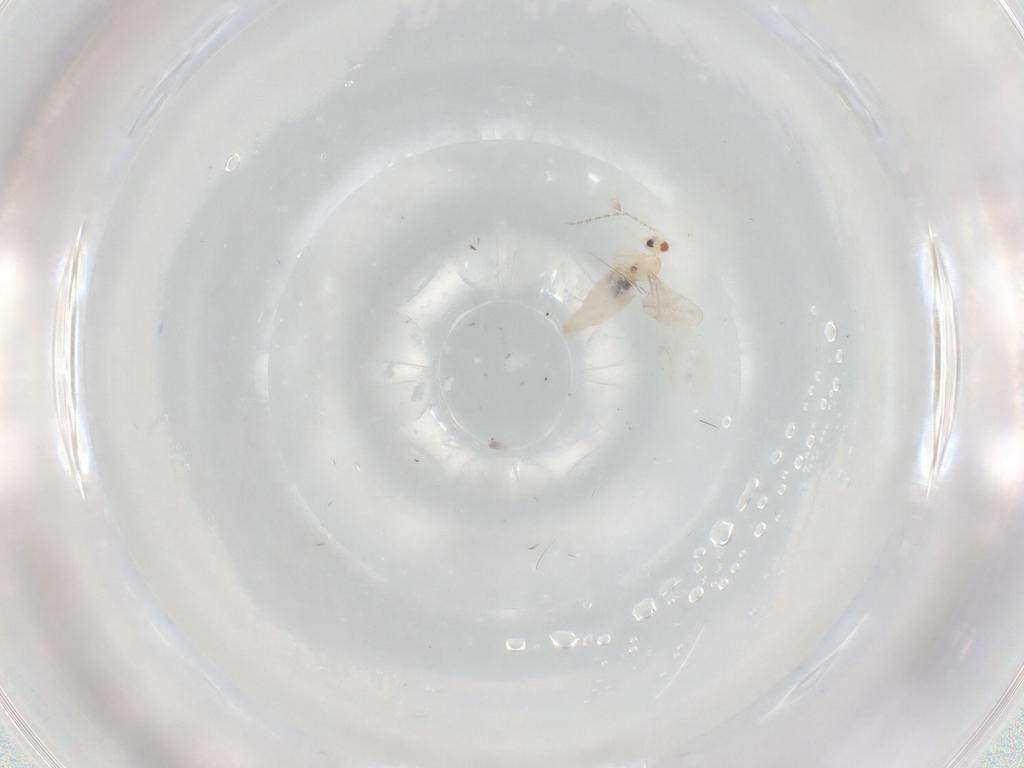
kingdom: Animalia
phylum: Arthropoda
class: Insecta
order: Diptera
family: Cecidomyiidae
